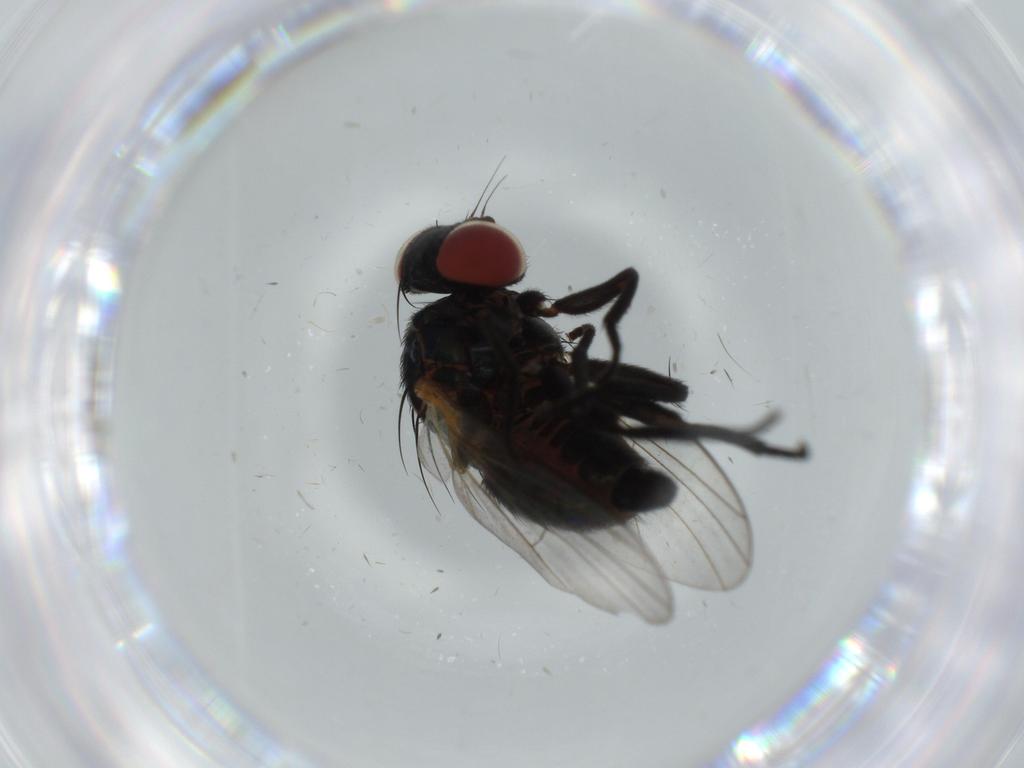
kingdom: Animalia
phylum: Arthropoda
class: Insecta
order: Diptera
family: Agromyzidae
